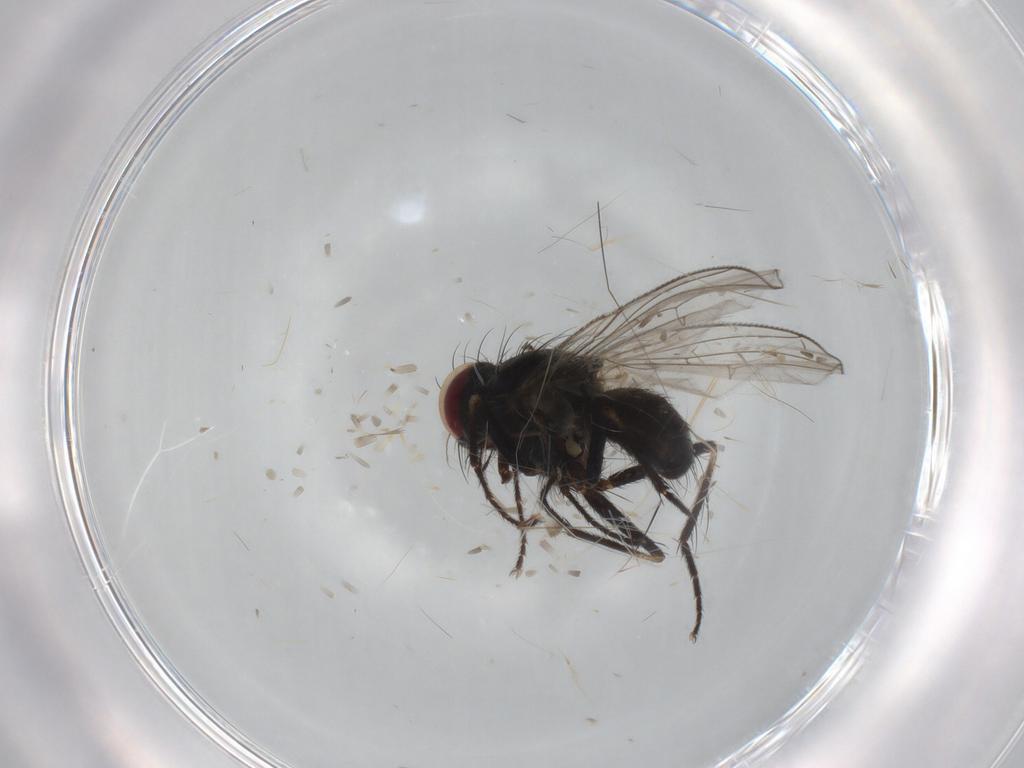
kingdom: Animalia
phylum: Arthropoda
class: Insecta
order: Diptera
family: Muscidae
